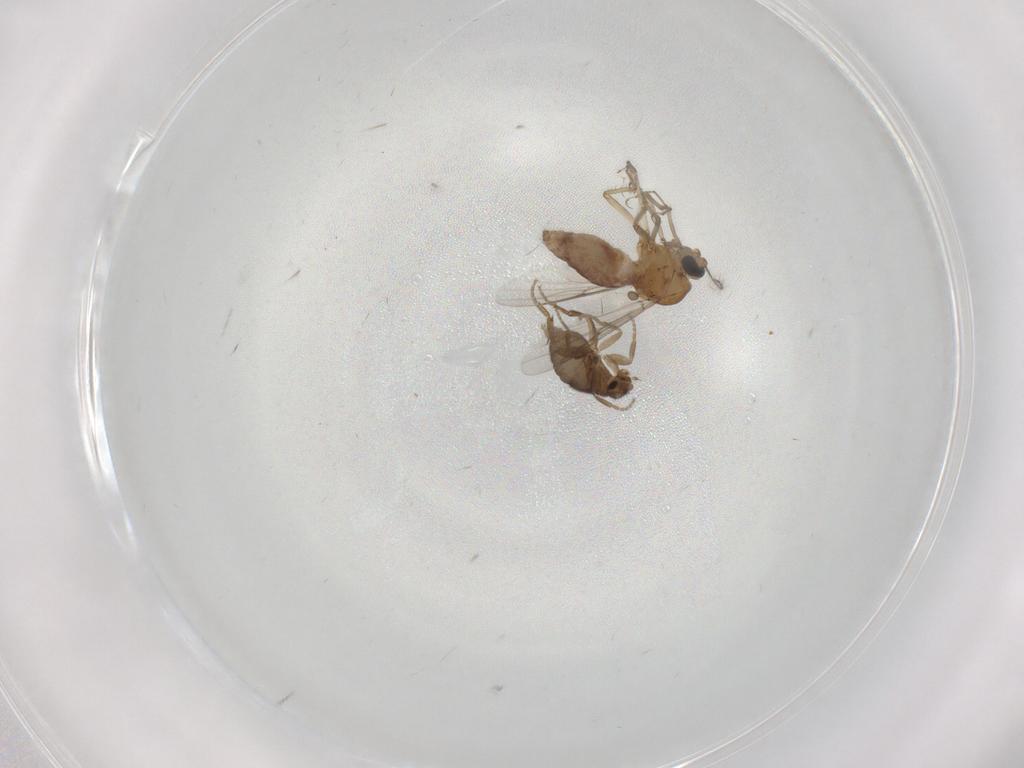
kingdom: Animalia
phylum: Arthropoda
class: Insecta
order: Diptera
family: Ceratopogonidae
